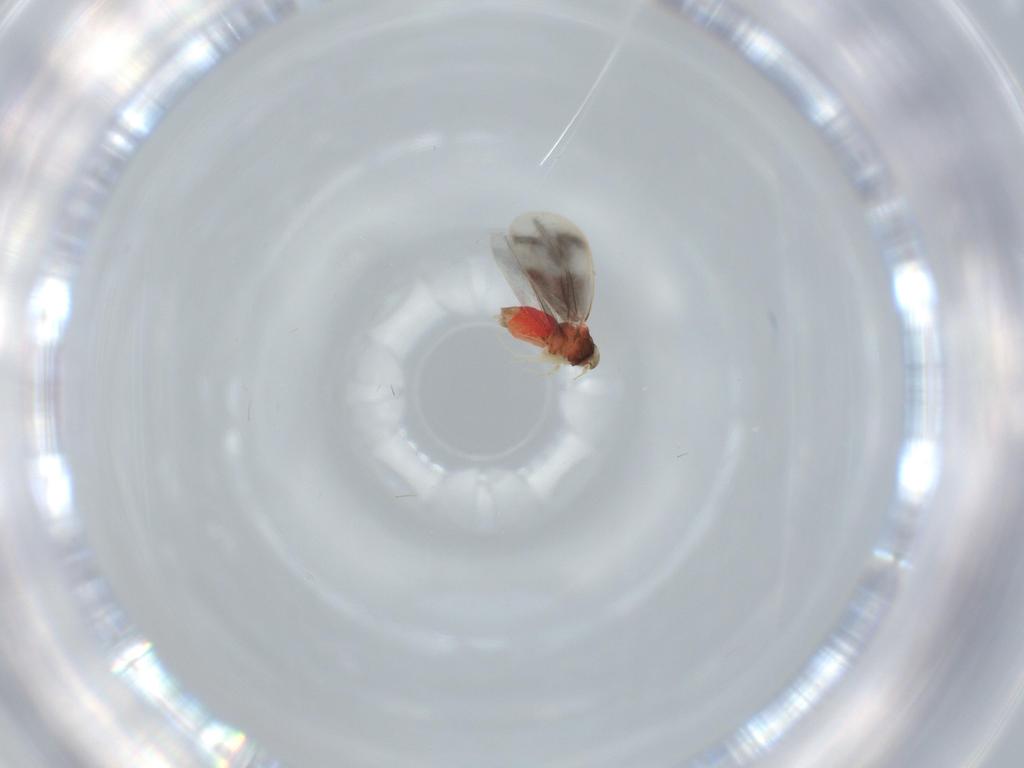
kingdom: Animalia
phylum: Arthropoda
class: Insecta
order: Hemiptera
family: Aleyrodidae
